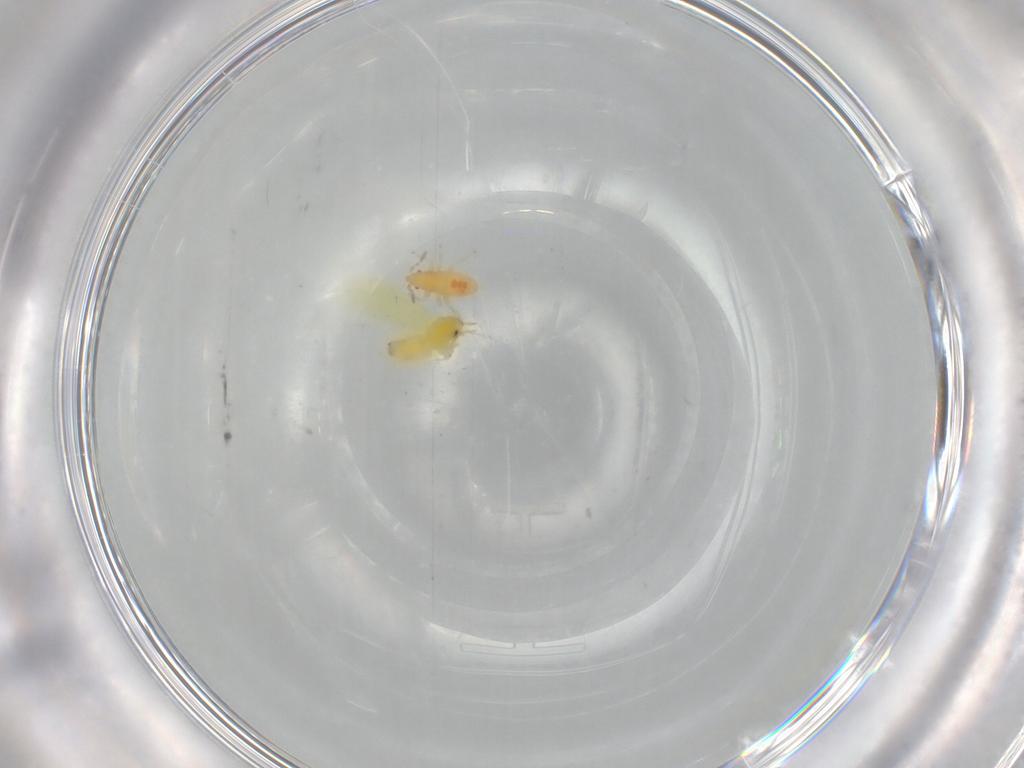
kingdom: Animalia
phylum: Arthropoda
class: Insecta
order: Hemiptera
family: Aleyrodidae
